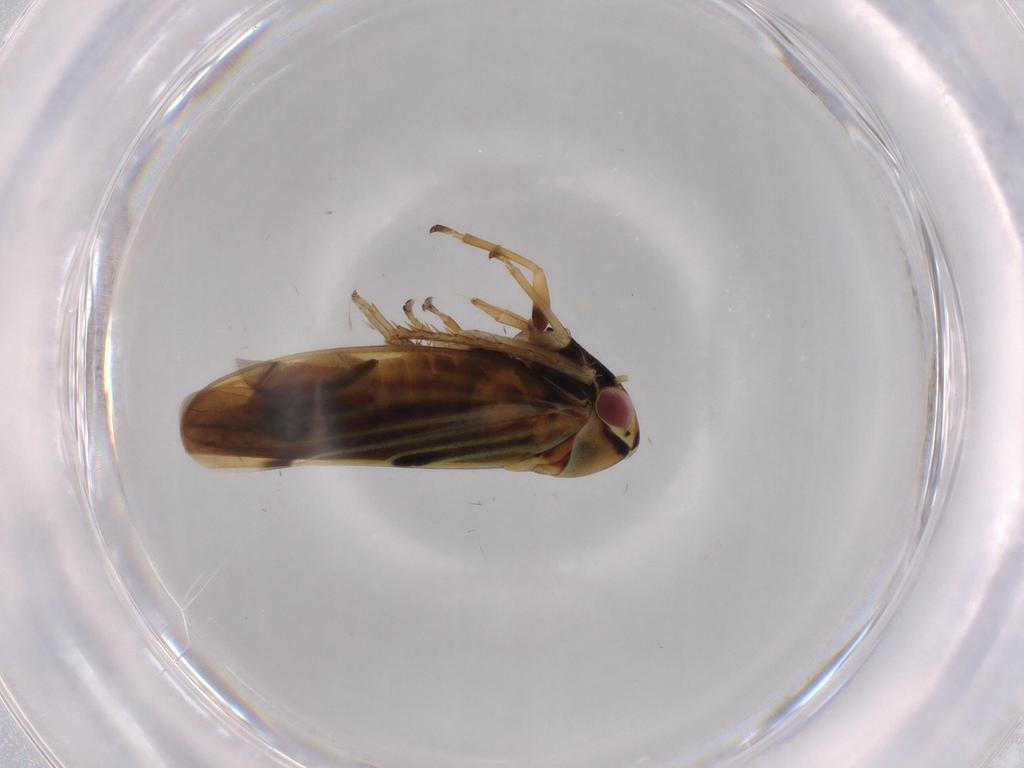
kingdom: Animalia
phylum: Arthropoda
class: Insecta
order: Hemiptera
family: Cicadellidae
